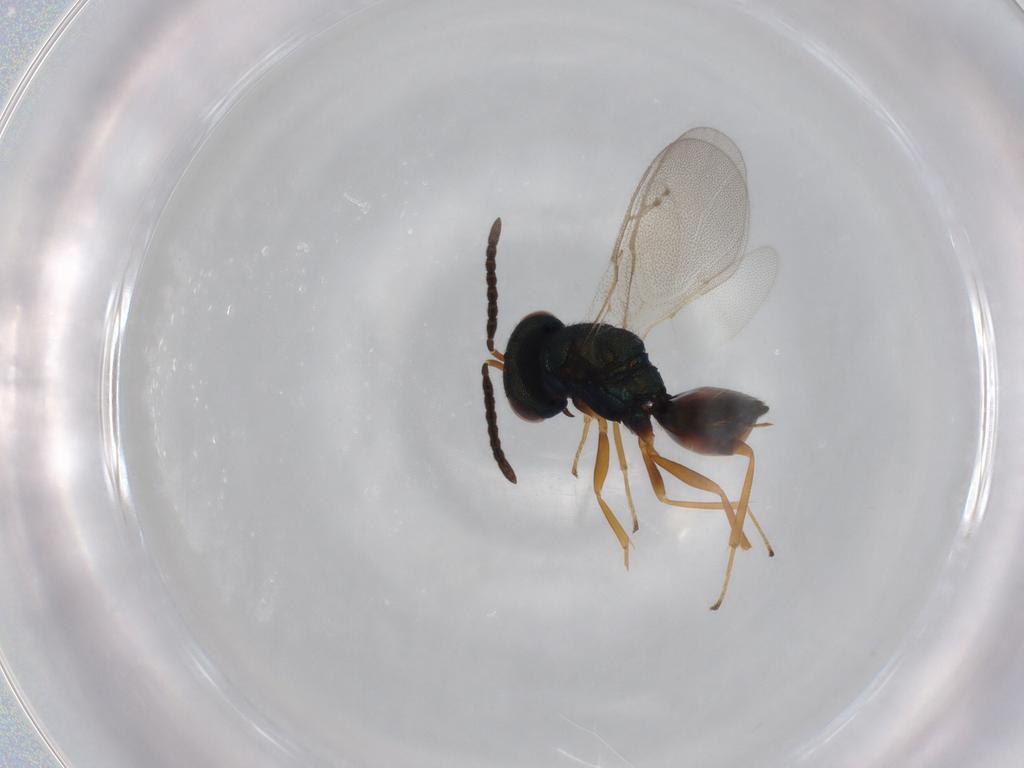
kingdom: Animalia
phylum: Arthropoda
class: Insecta
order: Hymenoptera
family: Pteromalidae
